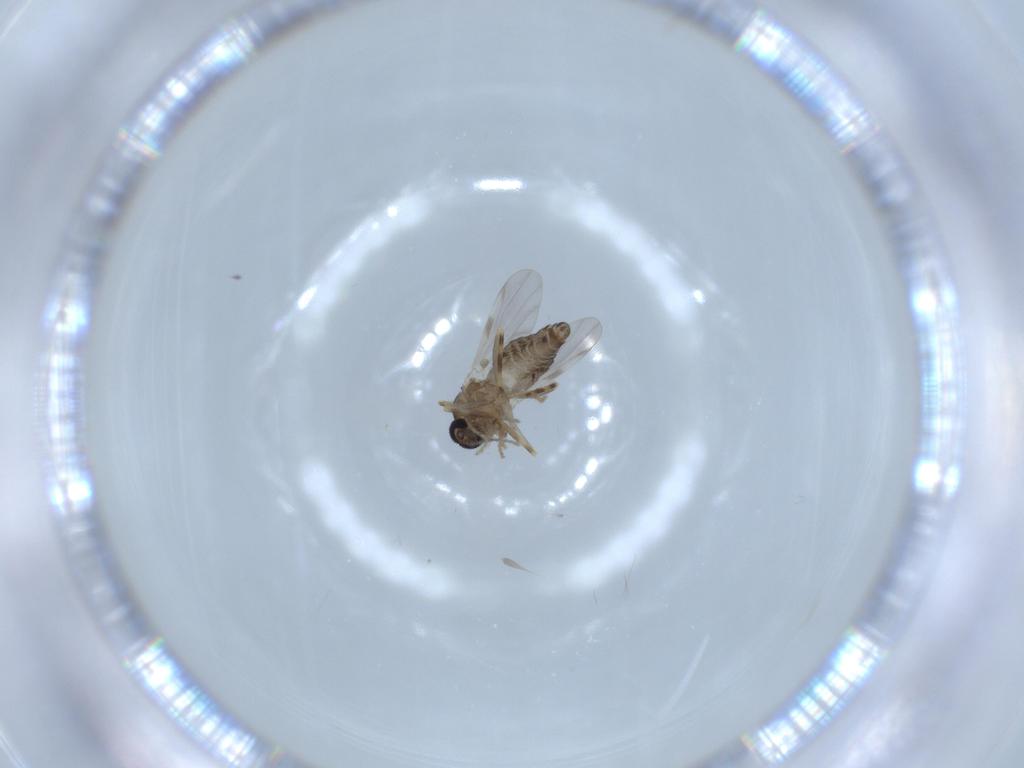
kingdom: Animalia
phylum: Arthropoda
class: Insecta
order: Diptera
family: Ceratopogonidae
